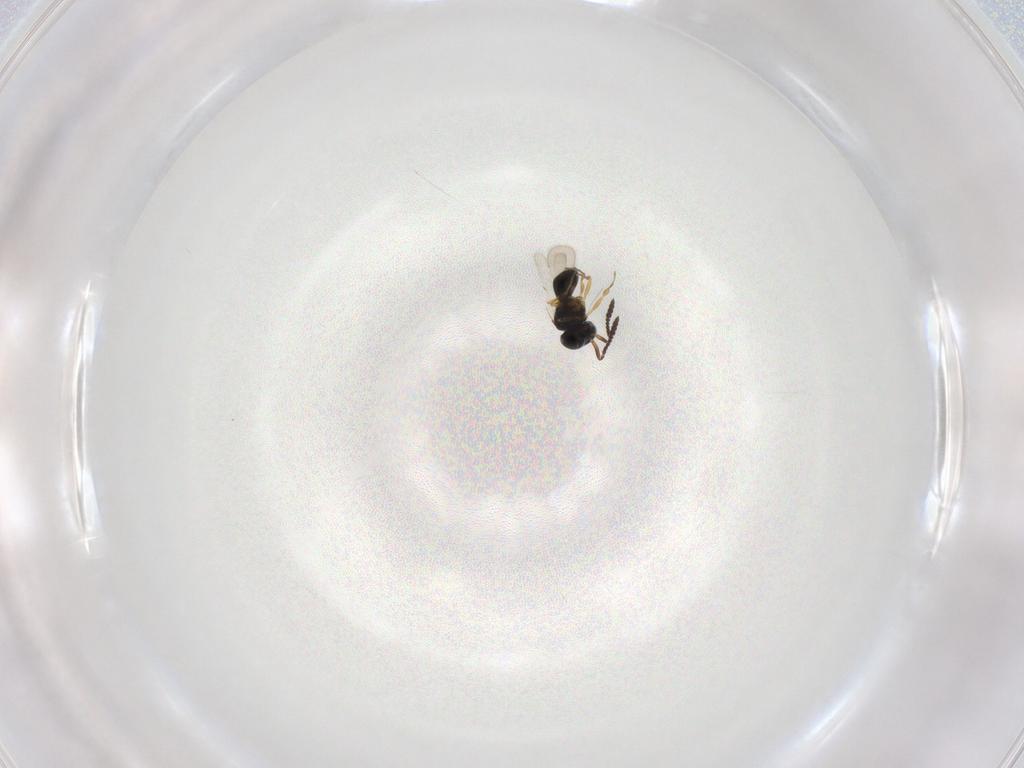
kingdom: Animalia
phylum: Arthropoda
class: Insecta
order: Hymenoptera
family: Scelionidae
